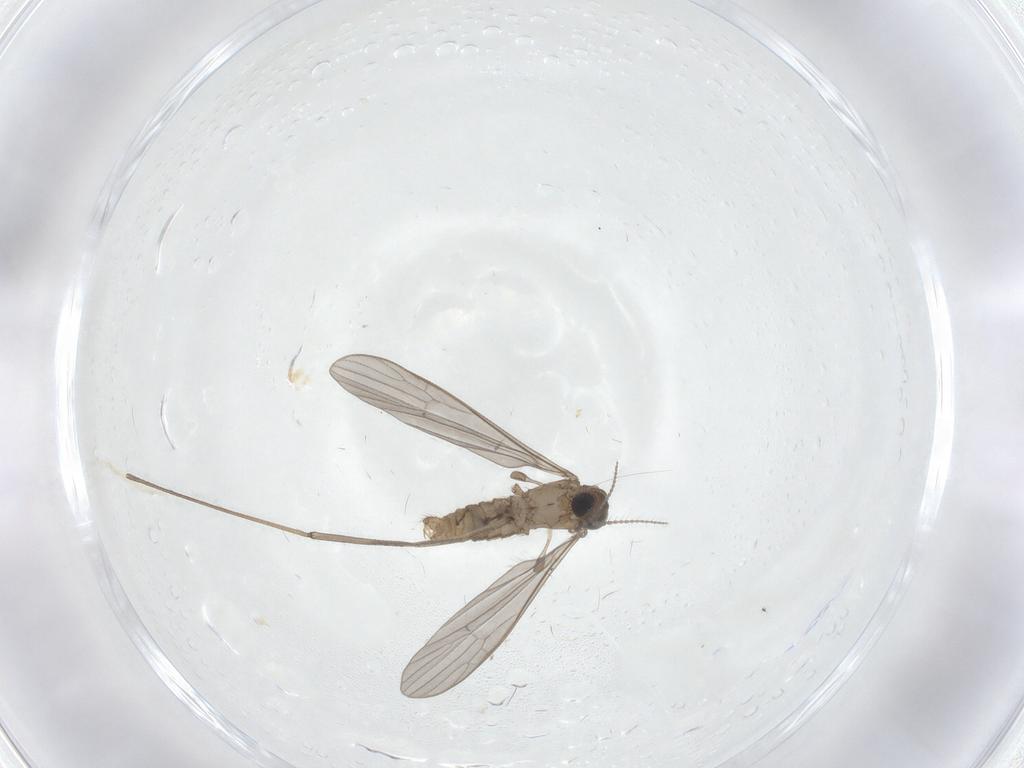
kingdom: Animalia
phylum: Arthropoda
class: Insecta
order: Diptera
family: Limoniidae
